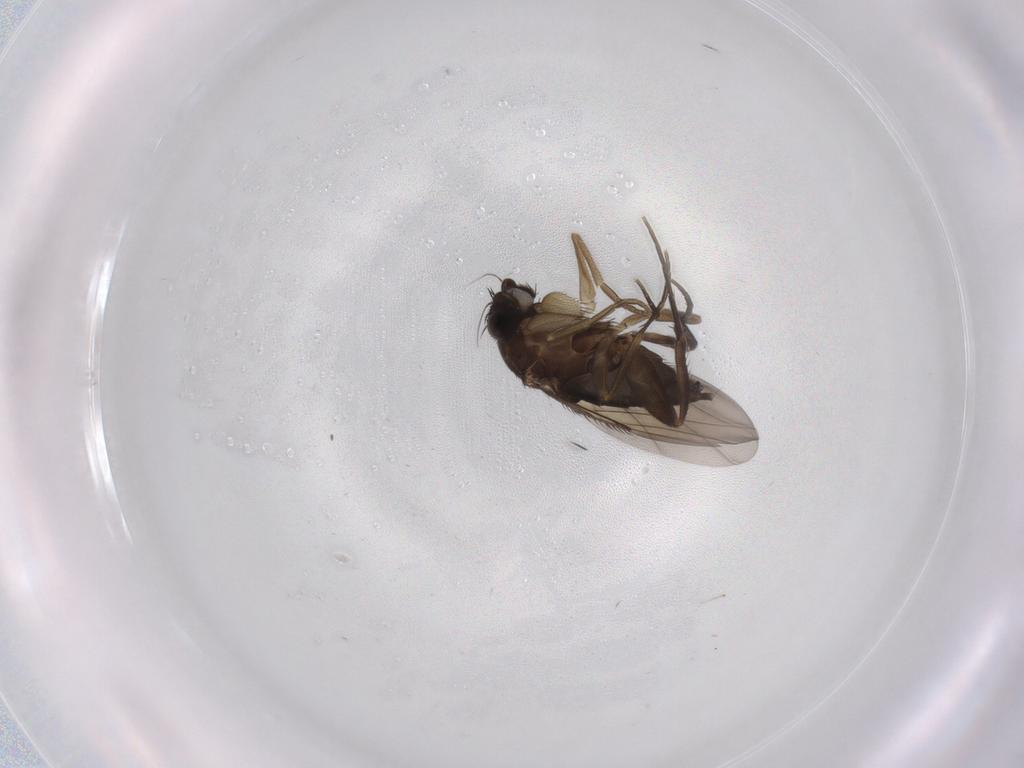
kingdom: Animalia
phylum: Arthropoda
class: Insecta
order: Diptera
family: Phoridae
